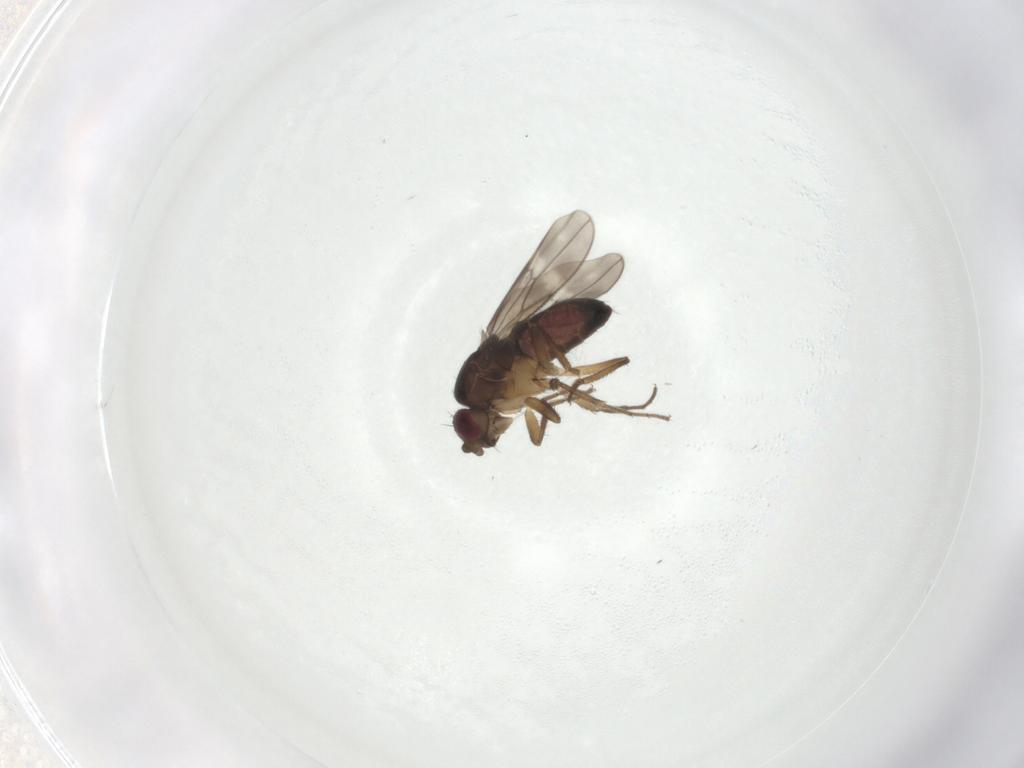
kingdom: Animalia
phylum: Arthropoda
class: Insecta
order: Diptera
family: Sphaeroceridae
